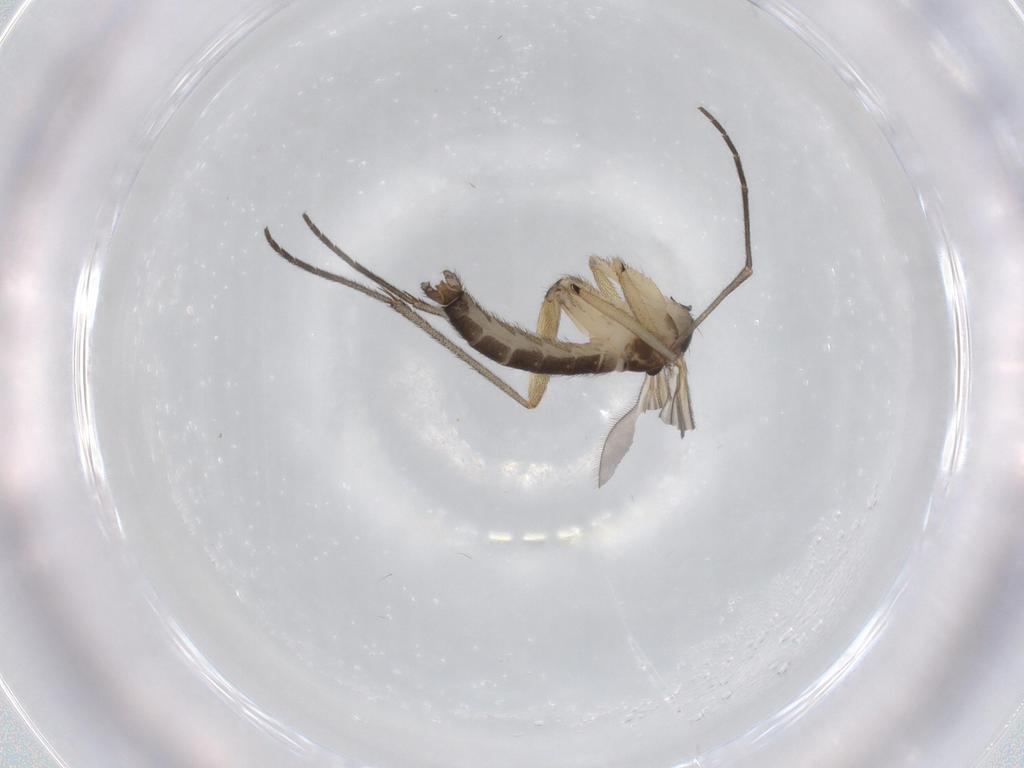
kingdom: Animalia
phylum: Arthropoda
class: Insecta
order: Diptera
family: Sciaridae
